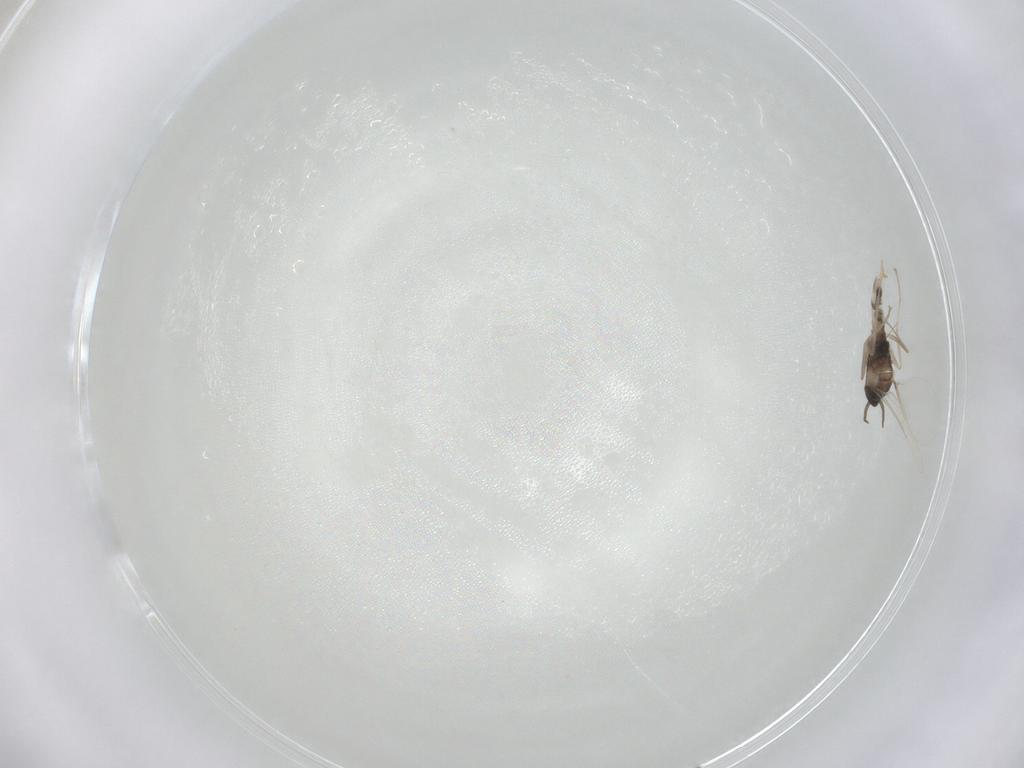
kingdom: Animalia
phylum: Arthropoda
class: Insecta
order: Diptera
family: Cecidomyiidae
